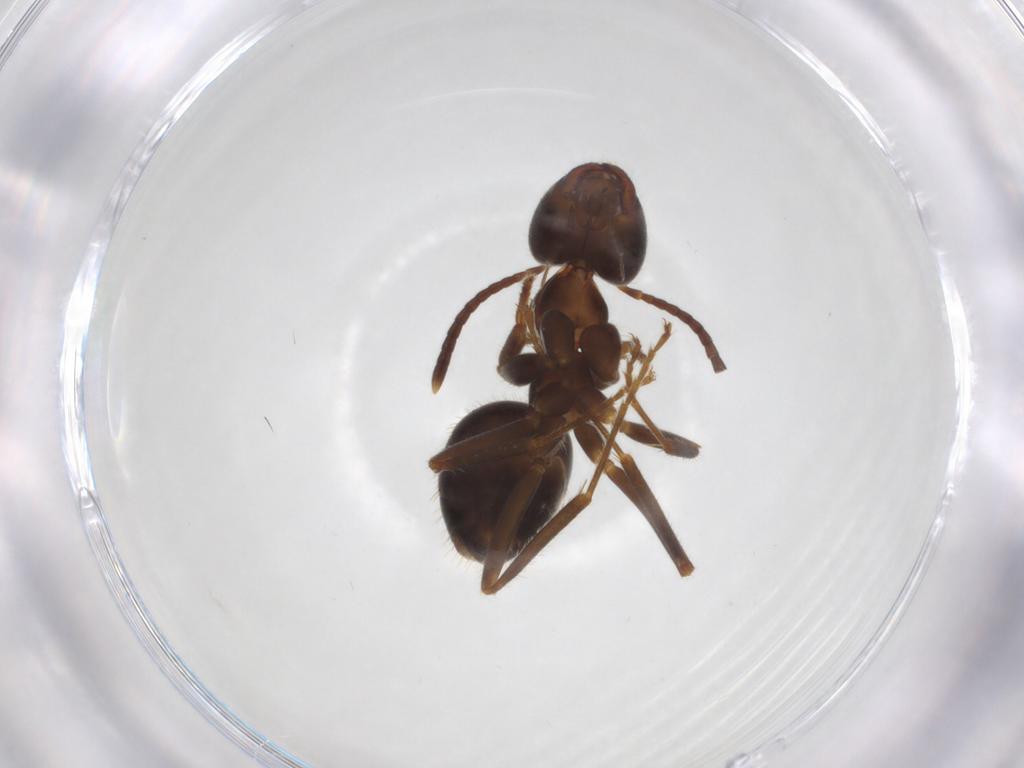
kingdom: Animalia
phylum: Arthropoda
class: Insecta
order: Hymenoptera
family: Formicidae
